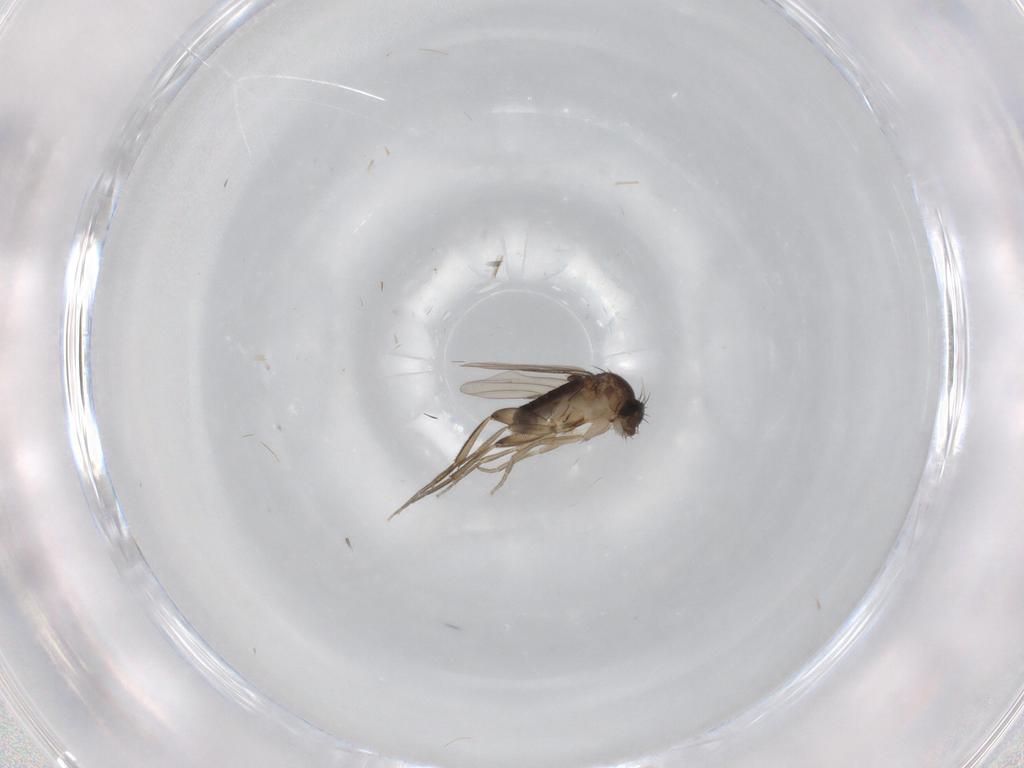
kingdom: Animalia
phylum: Arthropoda
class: Insecta
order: Diptera
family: Phoridae
